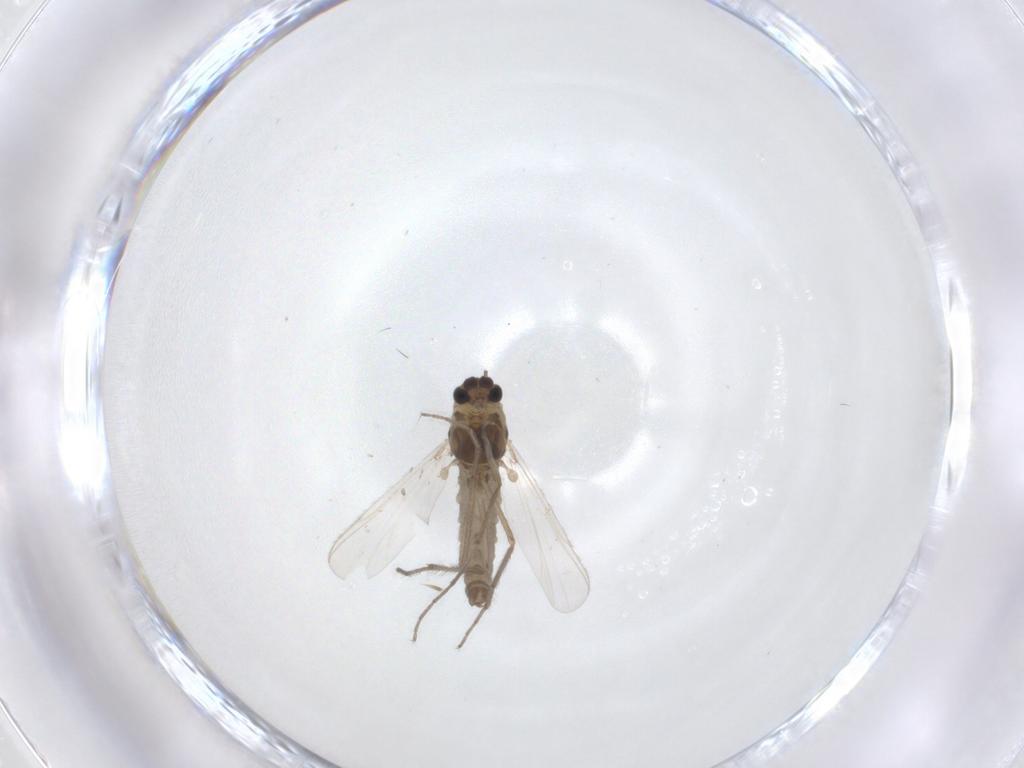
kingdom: Animalia
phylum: Arthropoda
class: Insecta
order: Diptera
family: Chironomidae
